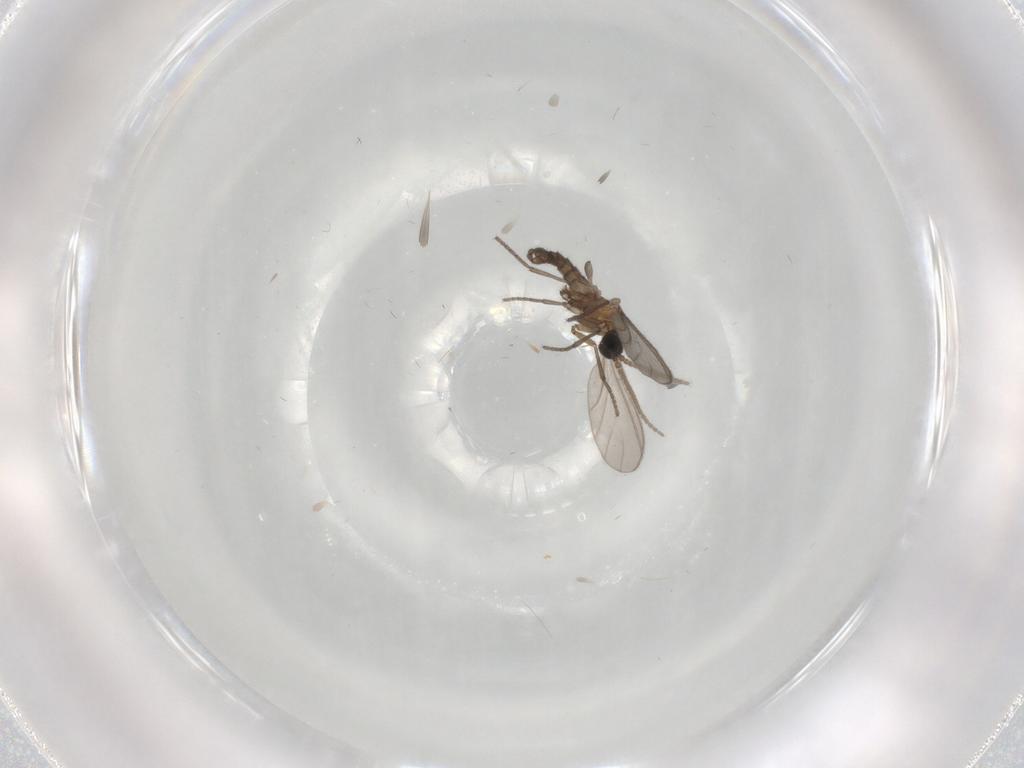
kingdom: Animalia
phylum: Arthropoda
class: Insecta
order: Diptera
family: Sciaridae
